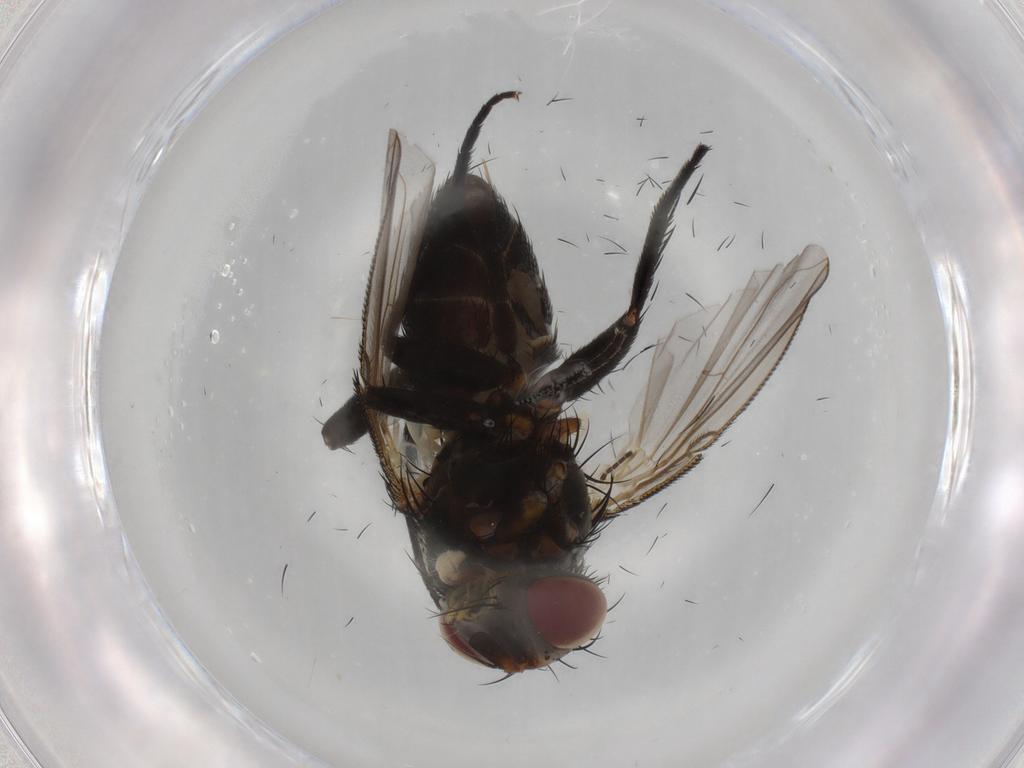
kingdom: Animalia
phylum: Arthropoda
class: Insecta
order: Diptera
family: Tachinidae
